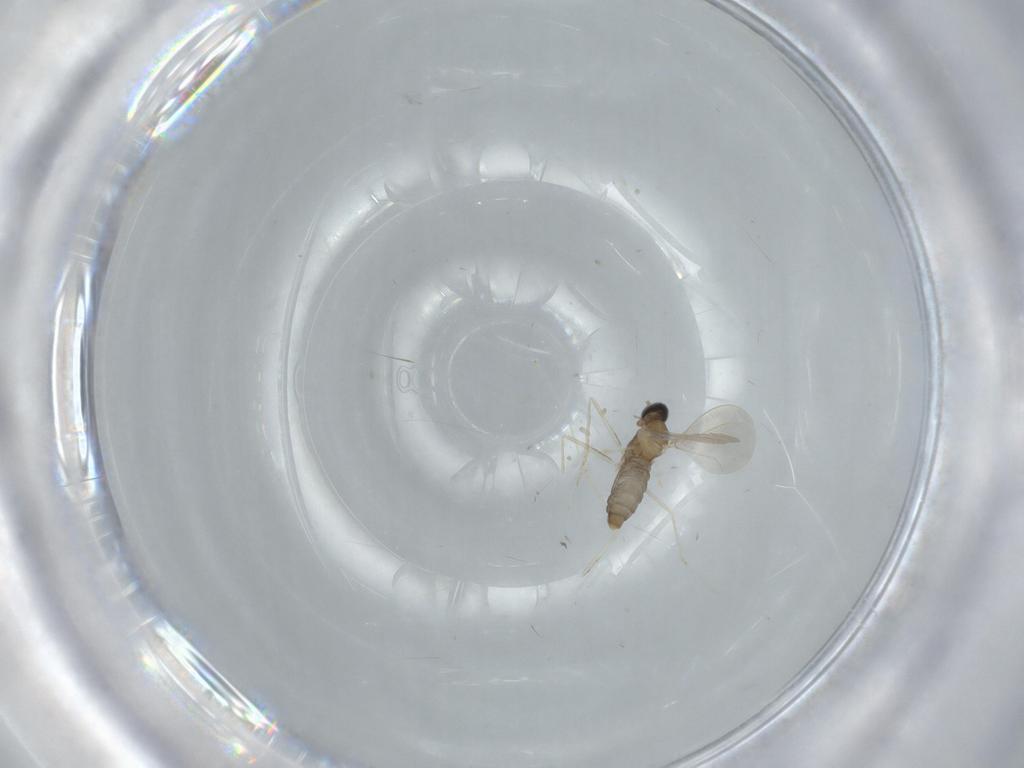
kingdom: Animalia
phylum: Arthropoda
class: Insecta
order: Diptera
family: Cecidomyiidae
